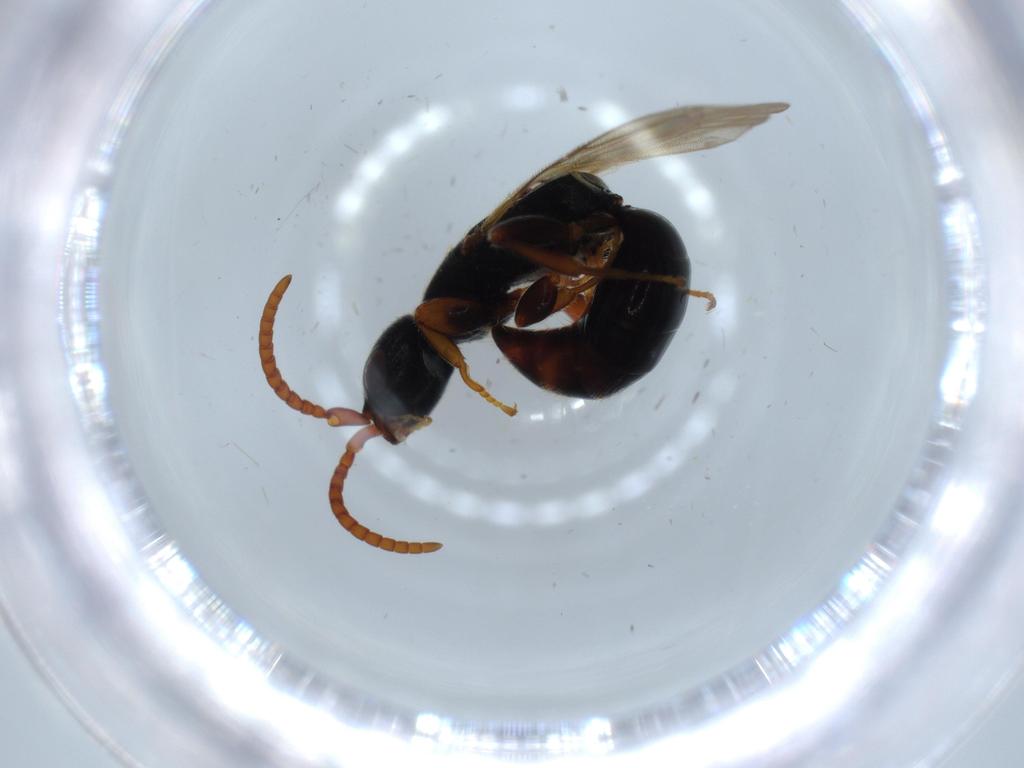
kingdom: Animalia
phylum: Arthropoda
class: Insecta
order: Hymenoptera
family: Bethylidae
